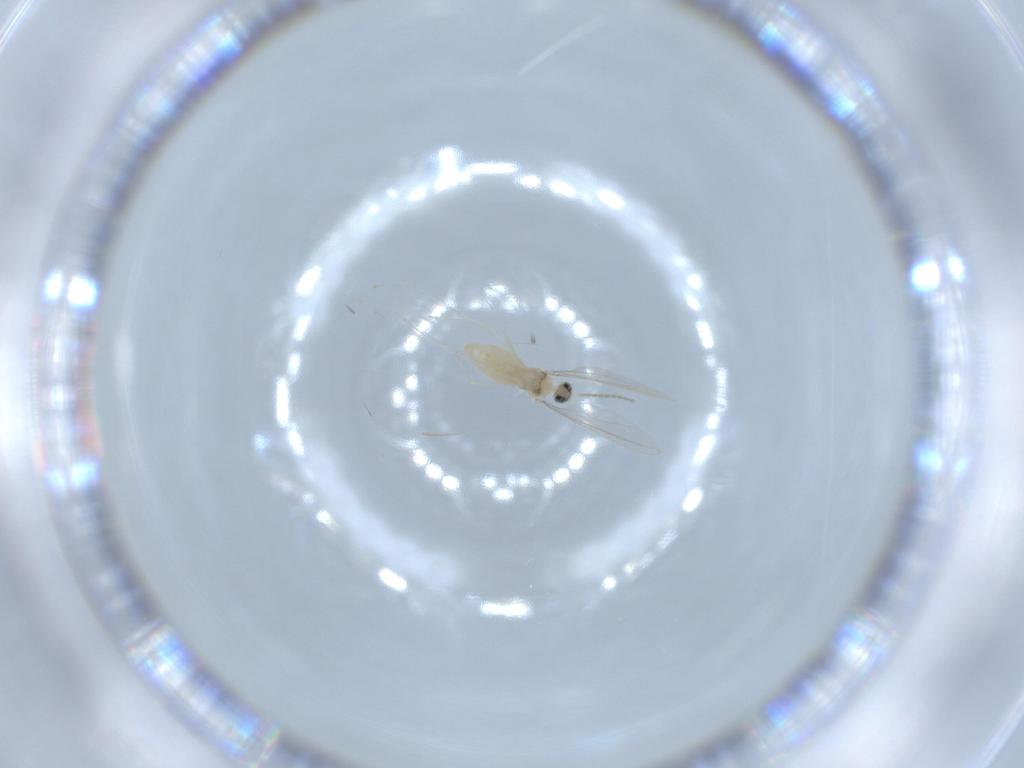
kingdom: Animalia
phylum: Arthropoda
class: Insecta
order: Diptera
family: Cecidomyiidae
